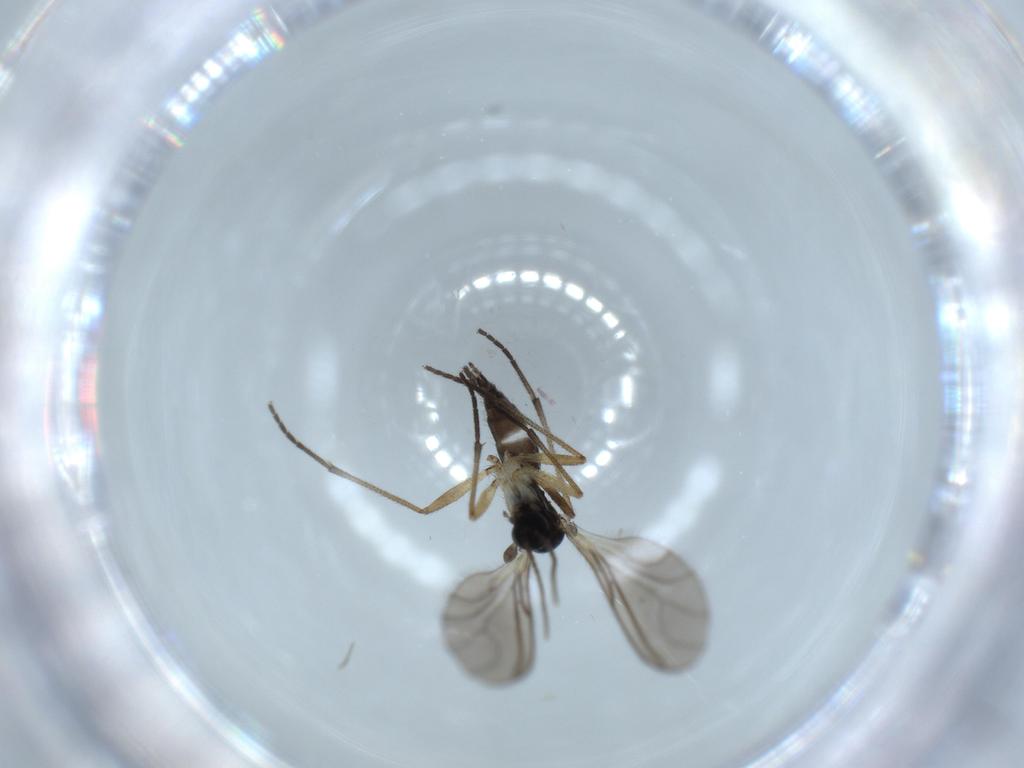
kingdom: Animalia
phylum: Arthropoda
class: Insecta
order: Diptera
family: Sciaridae
